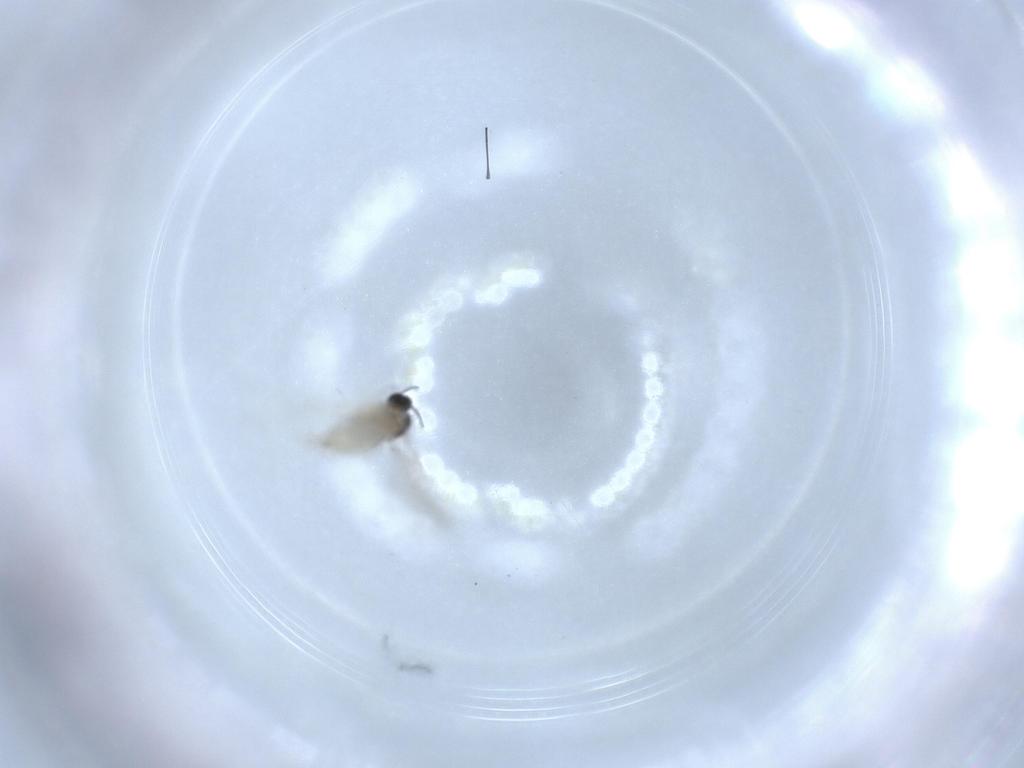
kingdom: Animalia
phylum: Arthropoda
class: Insecta
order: Diptera
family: Cecidomyiidae
